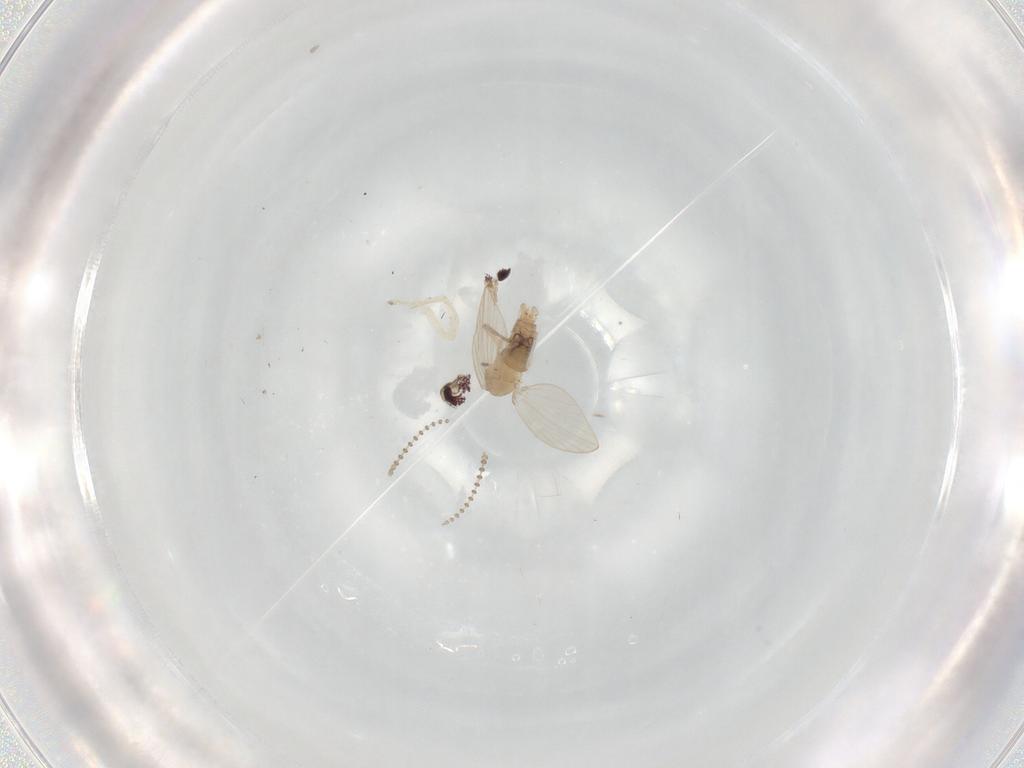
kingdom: Animalia
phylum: Arthropoda
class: Insecta
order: Diptera
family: Psychodidae
